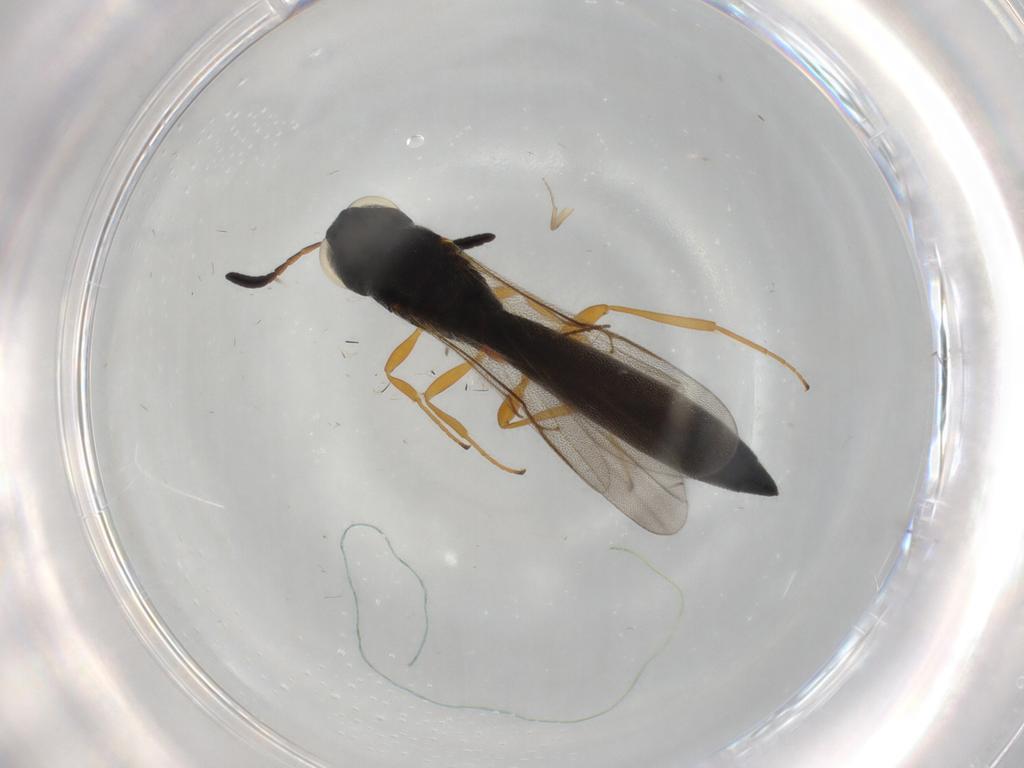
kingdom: Animalia
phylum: Arthropoda
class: Insecta
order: Hymenoptera
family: Scelionidae
